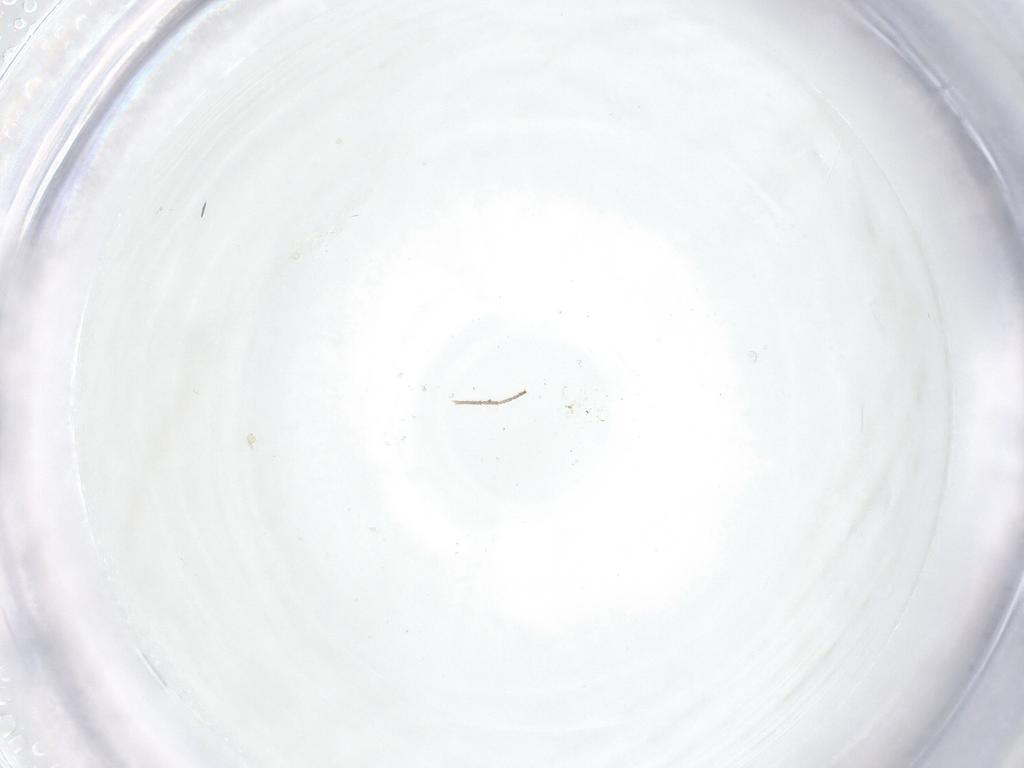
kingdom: Animalia
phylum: Arthropoda
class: Insecta
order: Diptera
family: Chironomidae
